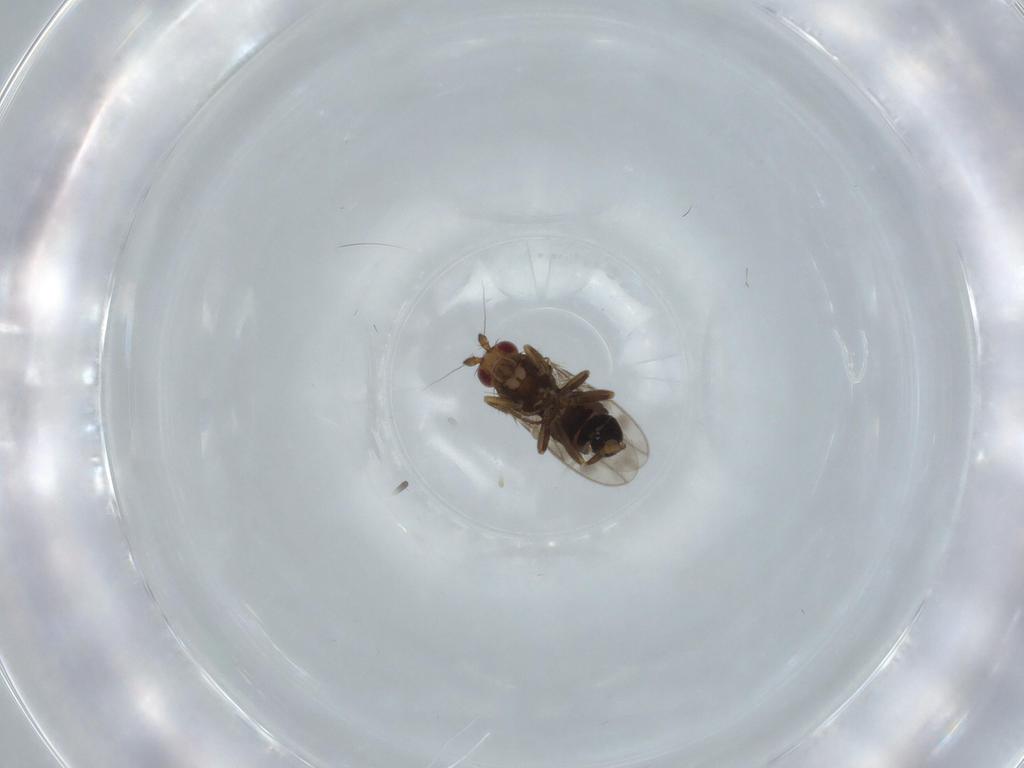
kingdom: Animalia
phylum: Arthropoda
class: Insecta
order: Diptera
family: Sphaeroceridae
